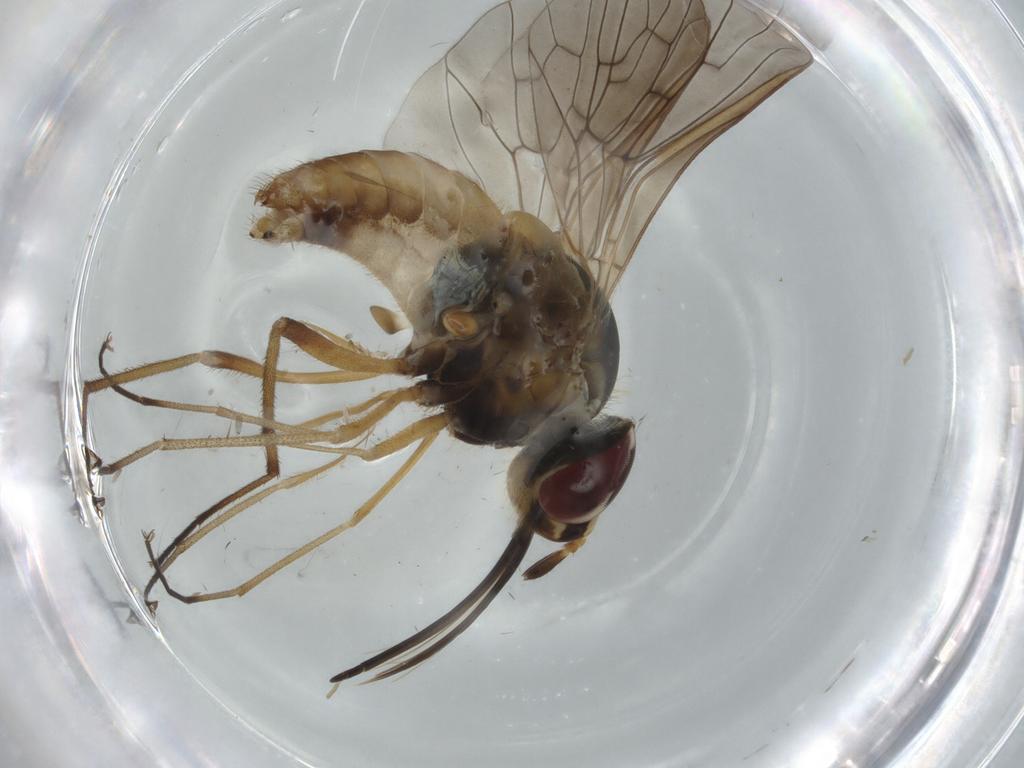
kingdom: Animalia
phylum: Arthropoda
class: Insecta
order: Diptera
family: Bombyliidae
